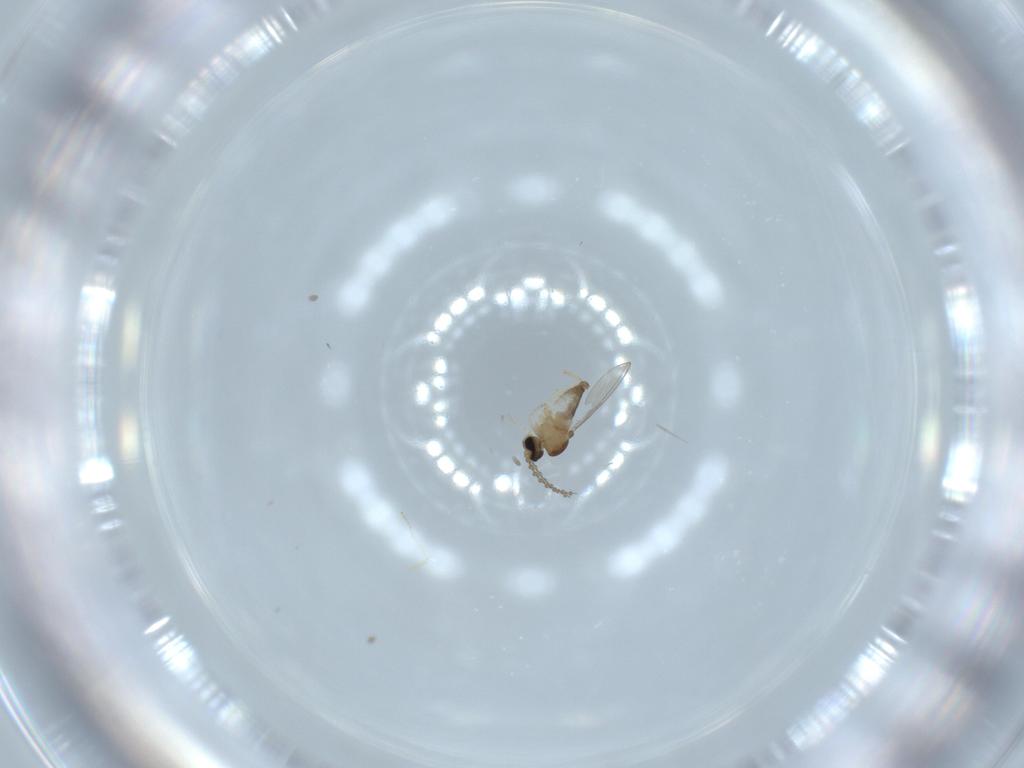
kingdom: Animalia
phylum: Arthropoda
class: Insecta
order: Diptera
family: Cecidomyiidae
